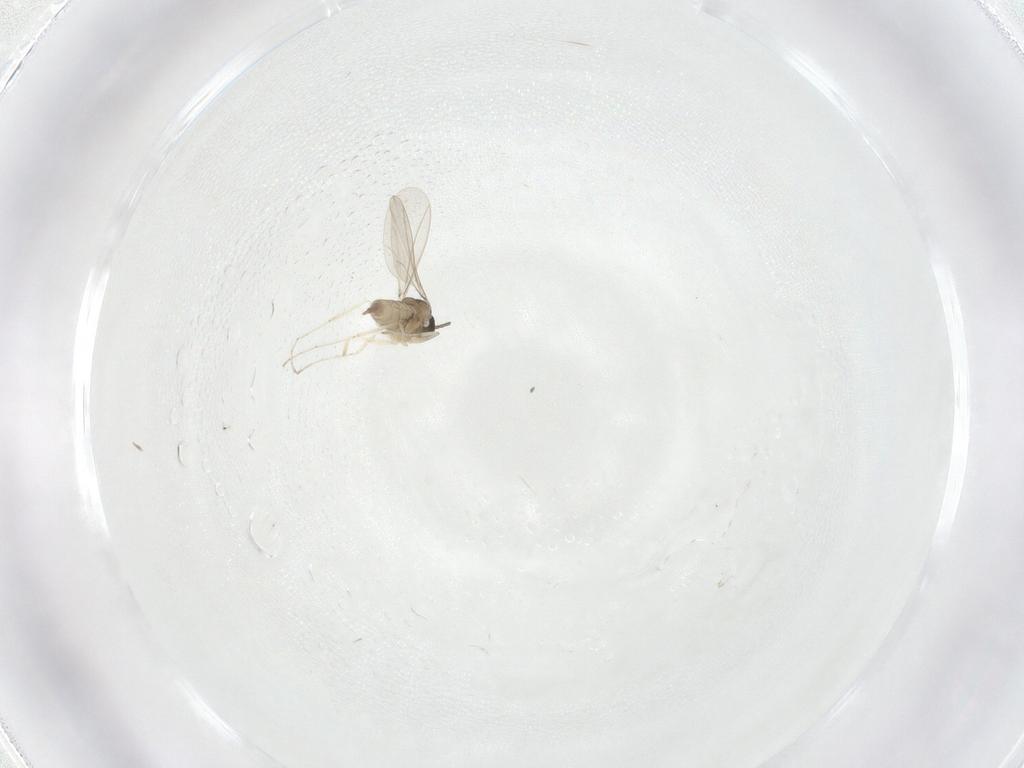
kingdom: Animalia
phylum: Arthropoda
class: Insecta
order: Diptera
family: Cecidomyiidae
